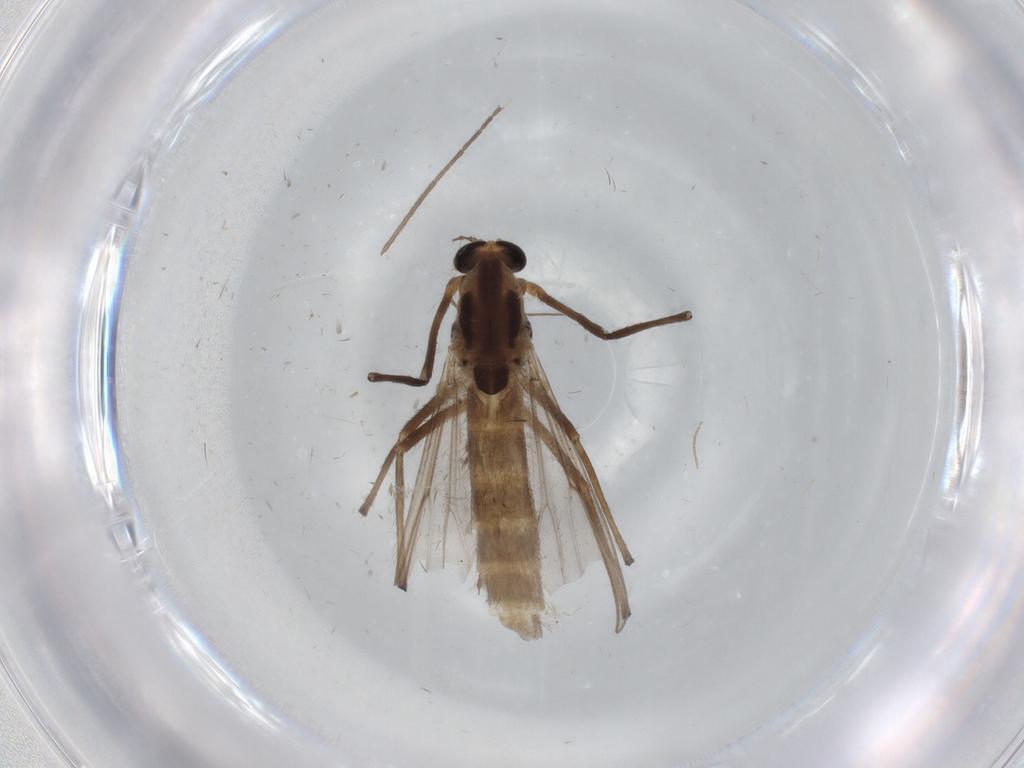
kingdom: Animalia
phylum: Arthropoda
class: Insecta
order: Diptera
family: Chironomidae
